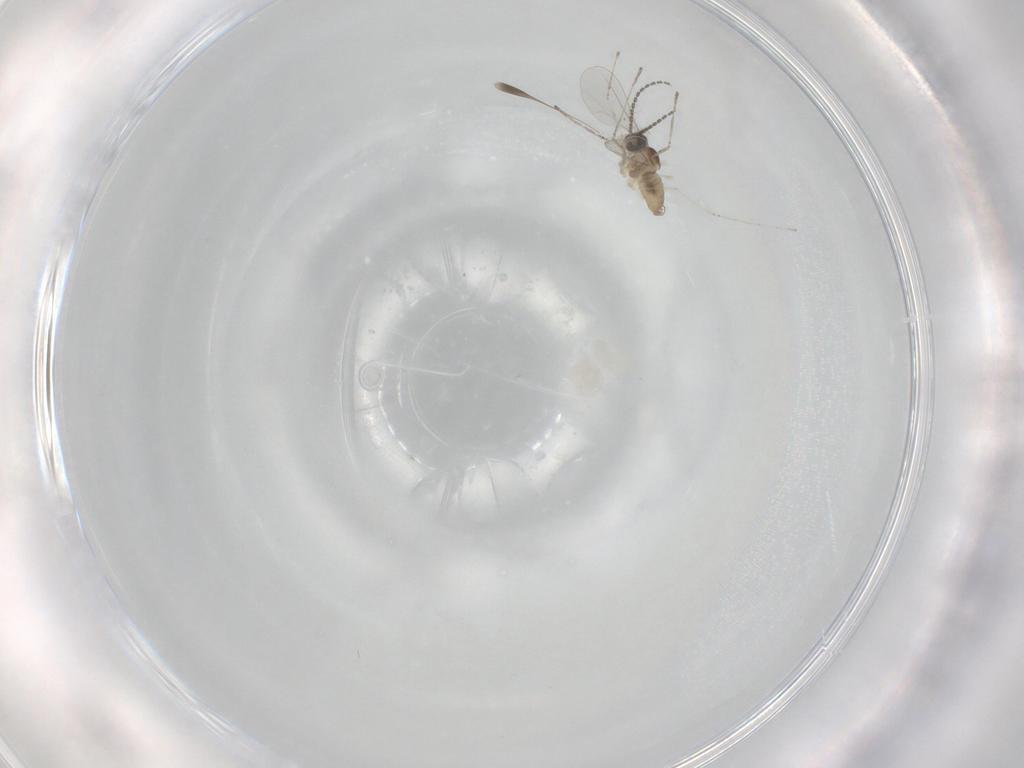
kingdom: Animalia
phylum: Arthropoda
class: Insecta
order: Diptera
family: Cecidomyiidae
